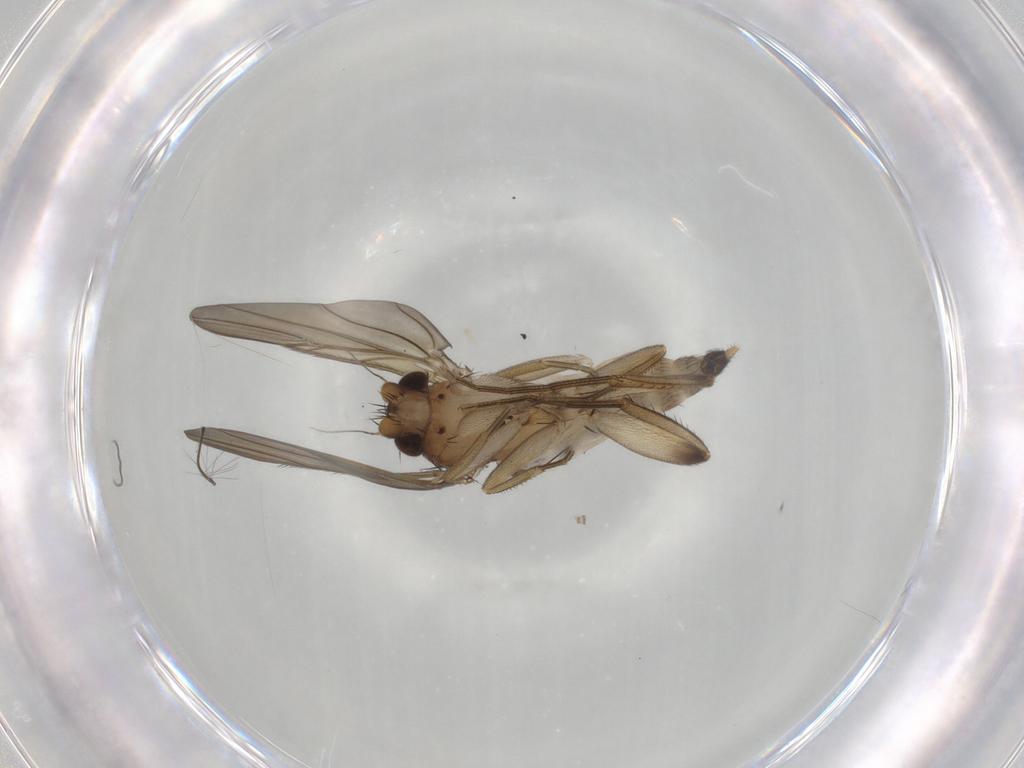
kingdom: Animalia
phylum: Arthropoda
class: Insecta
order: Diptera
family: Phoridae
